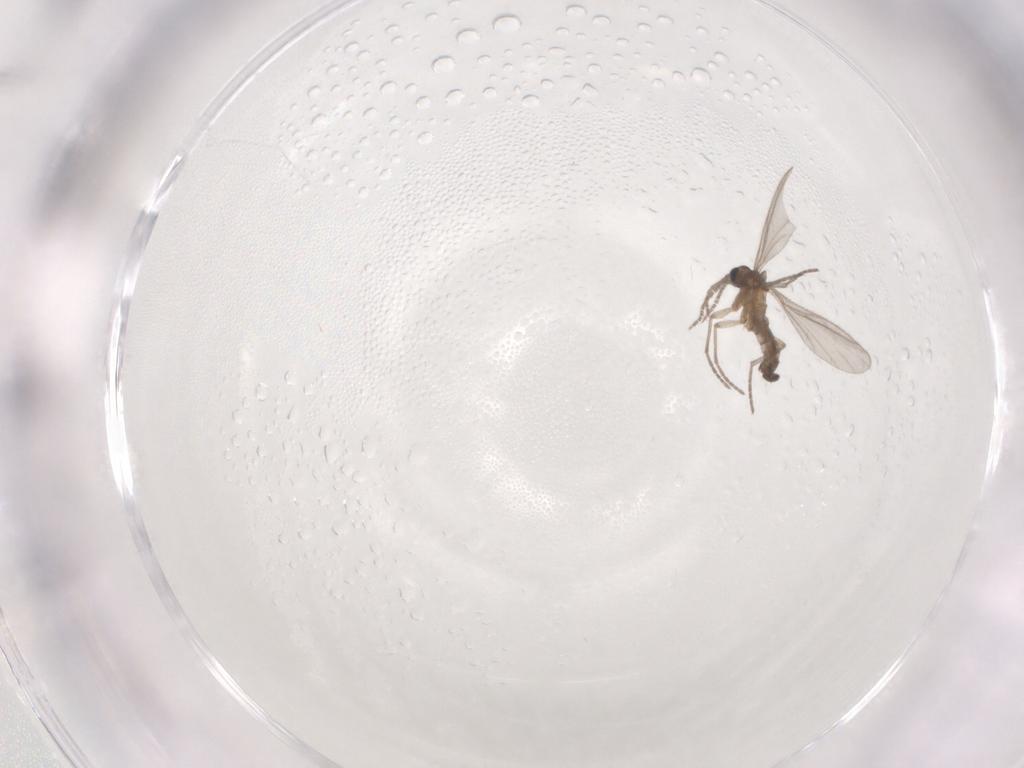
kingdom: Animalia
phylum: Arthropoda
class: Insecta
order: Diptera
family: Sciaridae
